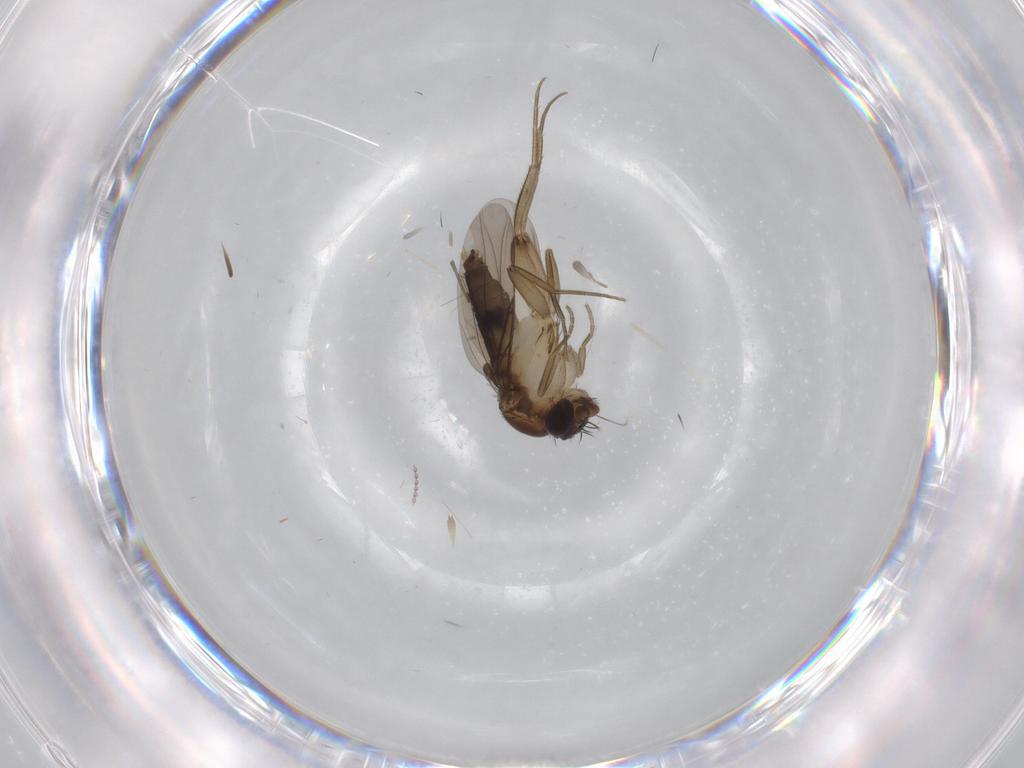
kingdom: Animalia
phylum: Arthropoda
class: Insecta
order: Diptera
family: Phoridae
